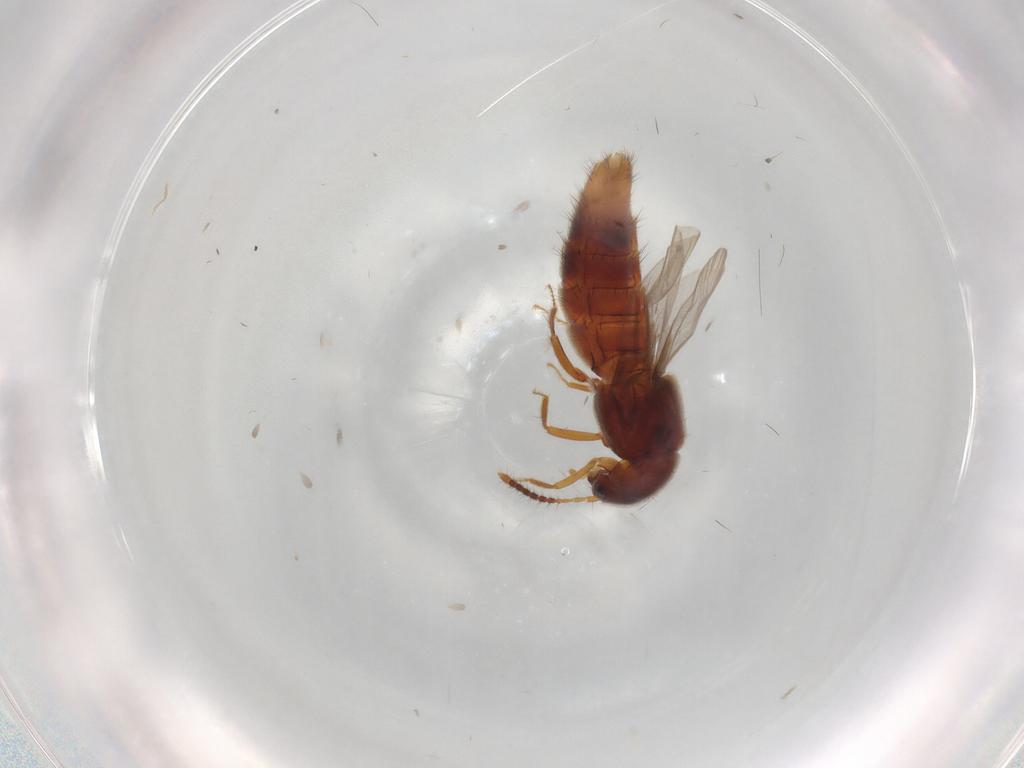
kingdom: Animalia
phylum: Arthropoda
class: Insecta
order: Coleoptera
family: Staphylinidae
